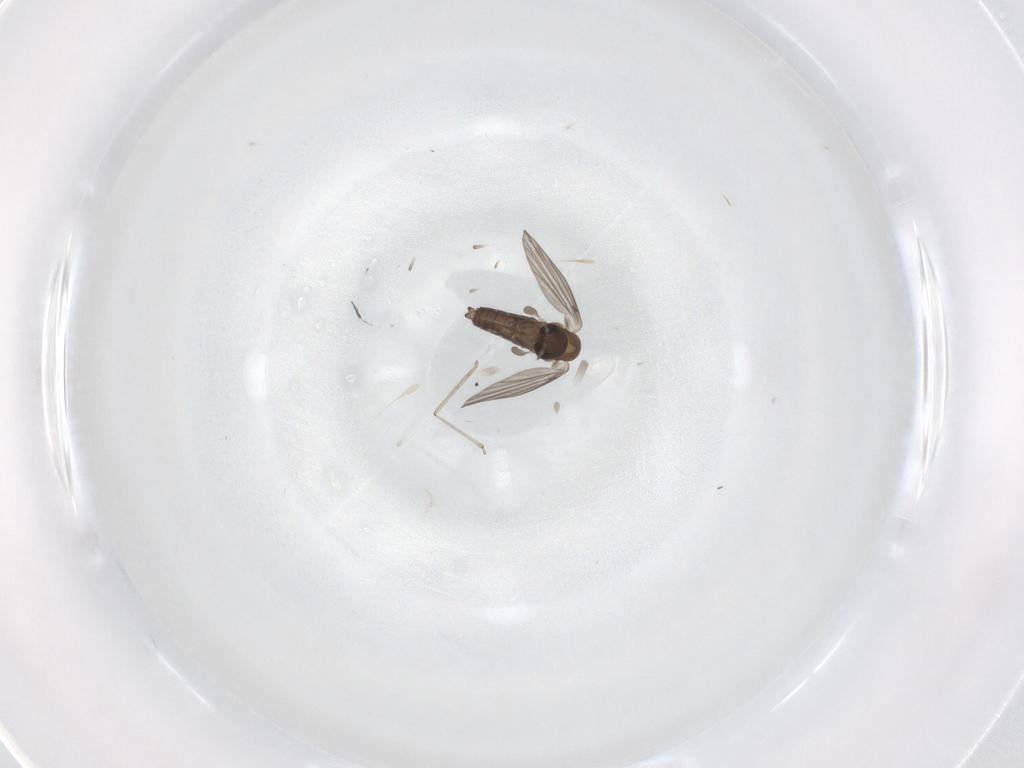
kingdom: Animalia
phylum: Arthropoda
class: Insecta
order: Diptera
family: Cecidomyiidae
